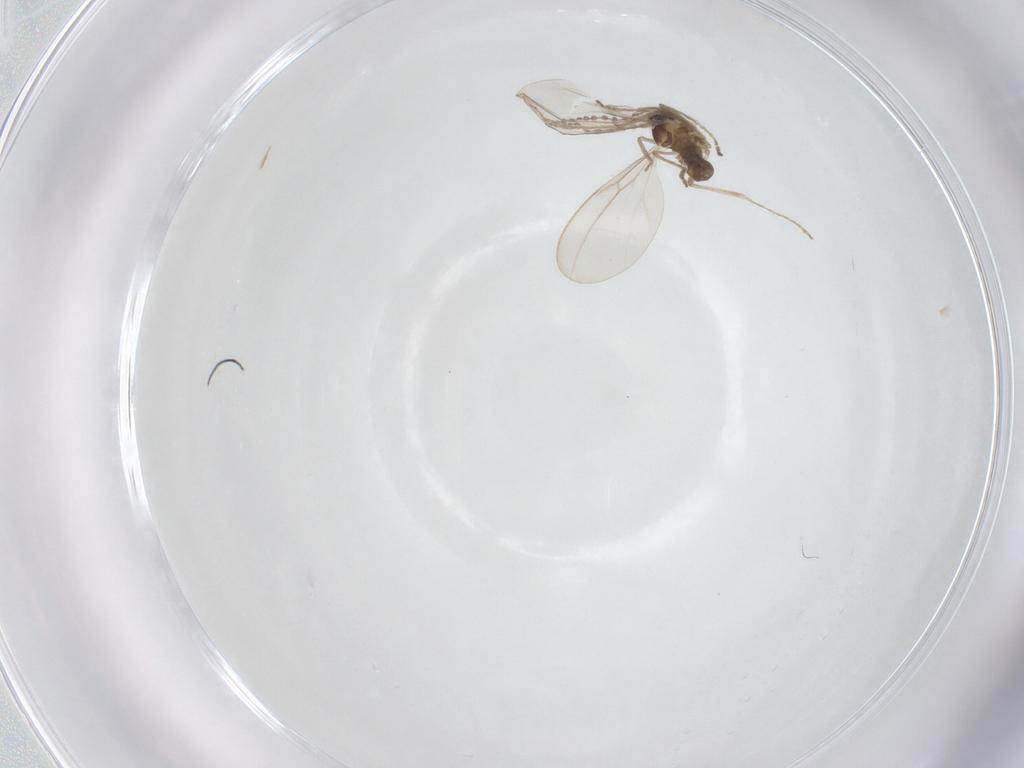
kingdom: Animalia
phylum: Arthropoda
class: Insecta
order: Diptera
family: Cecidomyiidae
